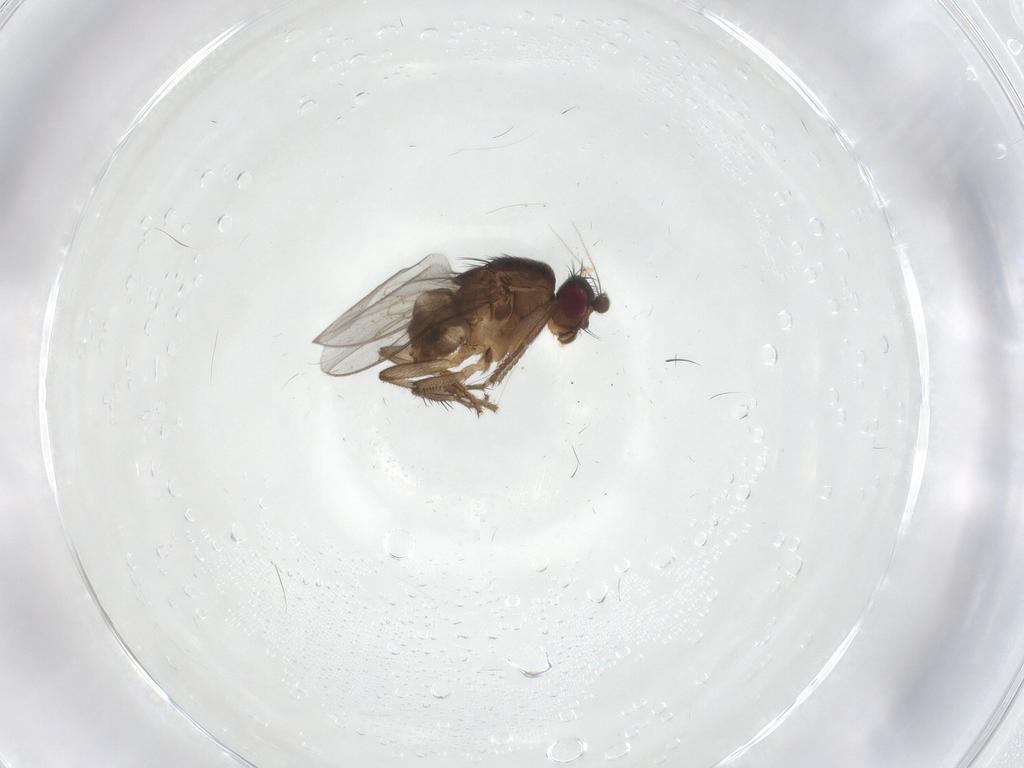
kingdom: Animalia
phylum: Arthropoda
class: Insecta
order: Diptera
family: Sphaeroceridae
